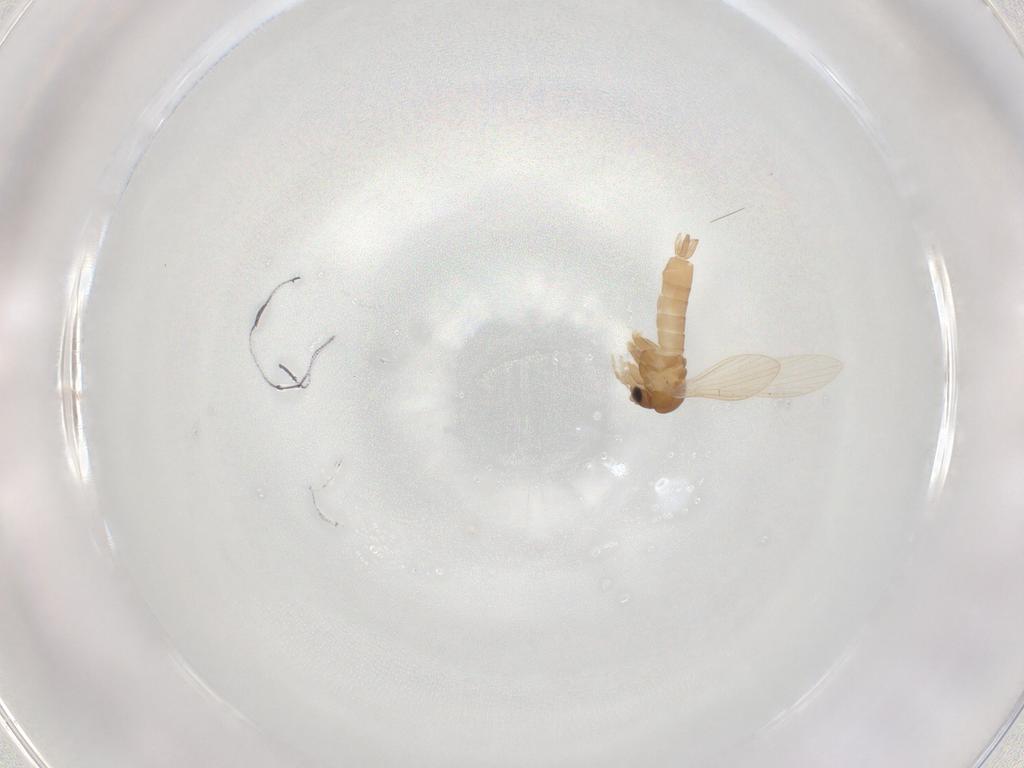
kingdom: Animalia
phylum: Arthropoda
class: Insecta
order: Diptera
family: Psychodidae
